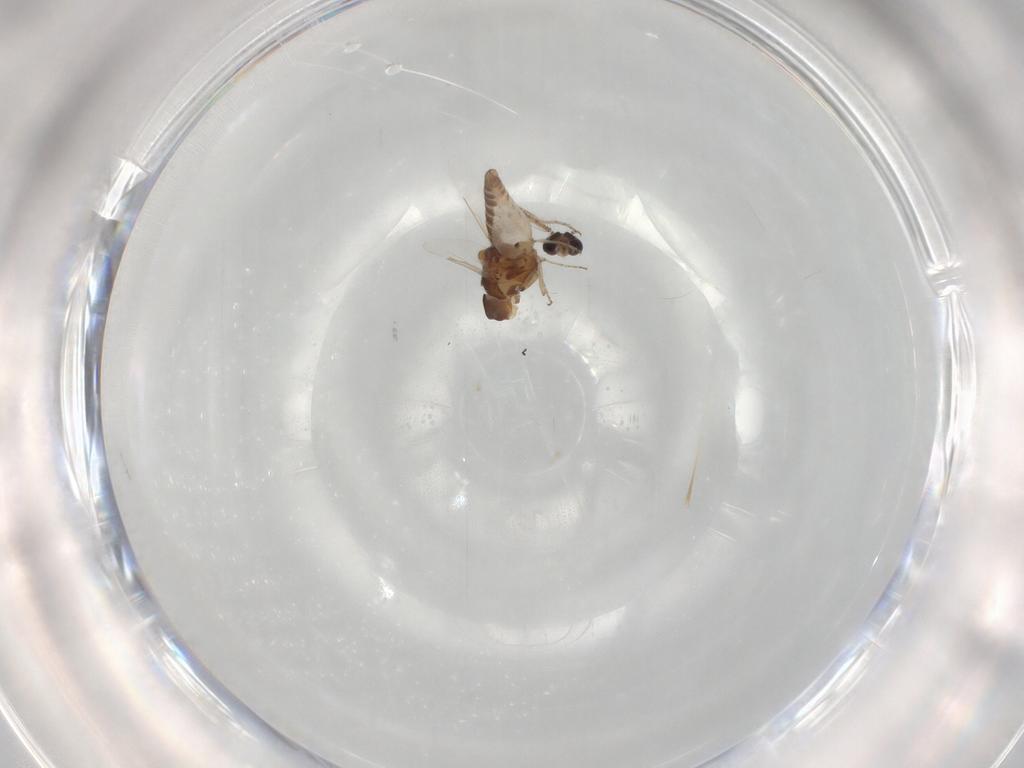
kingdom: Animalia
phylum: Arthropoda
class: Insecta
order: Diptera
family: Ceratopogonidae
